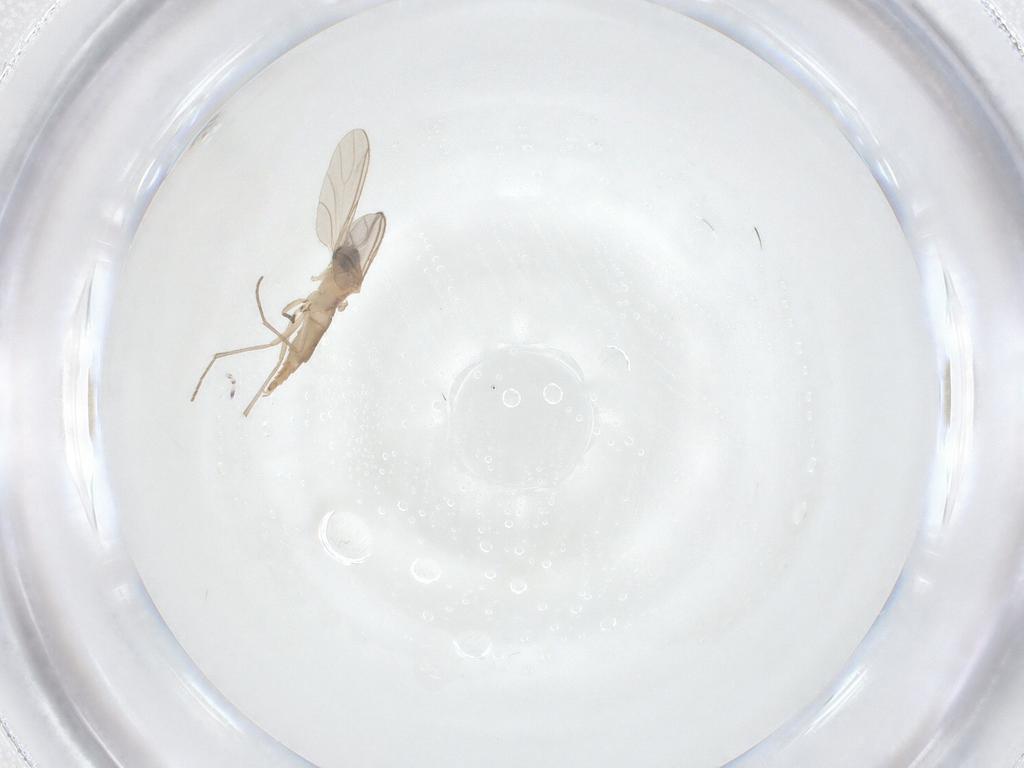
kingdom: Animalia
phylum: Arthropoda
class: Insecta
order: Diptera
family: Sciaridae
